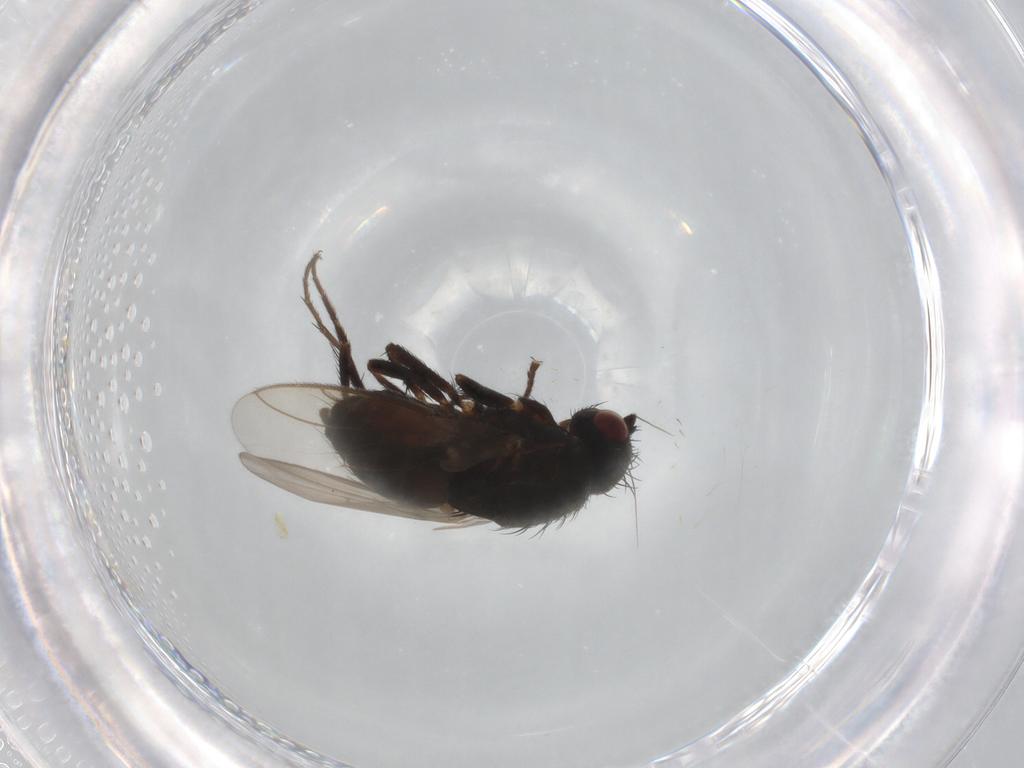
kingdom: Animalia
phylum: Arthropoda
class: Insecta
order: Diptera
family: Sphaeroceridae
